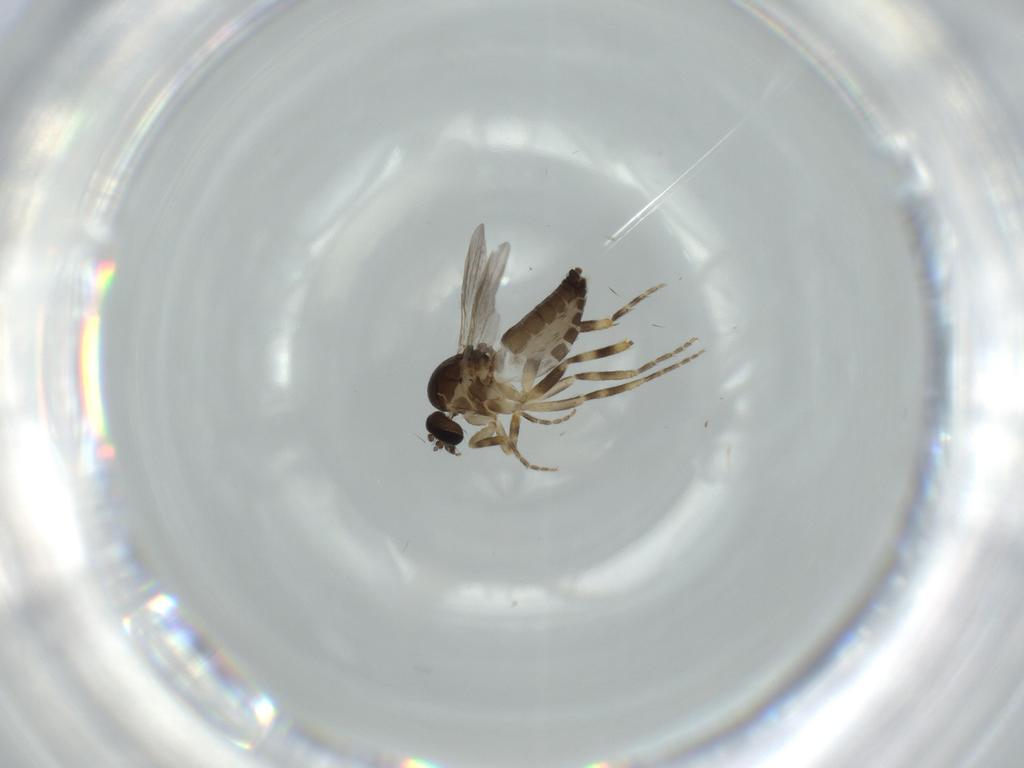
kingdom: Animalia
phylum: Arthropoda
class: Insecta
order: Diptera
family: Ceratopogonidae
